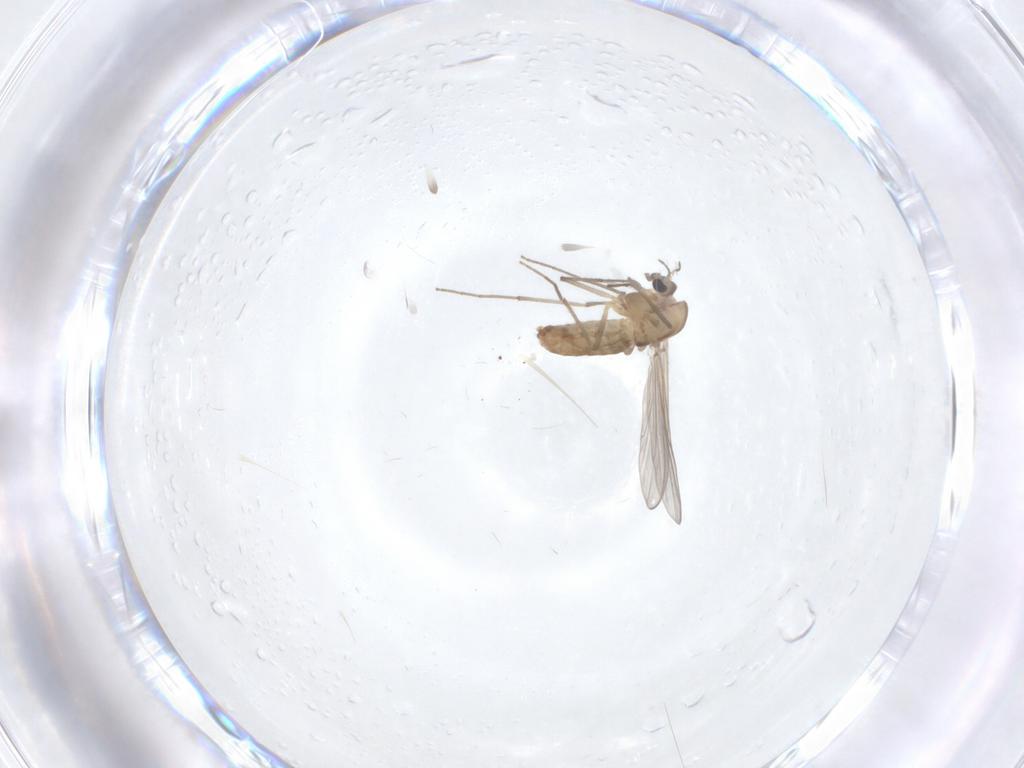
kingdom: Animalia
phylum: Arthropoda
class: Insecta
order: Diptera
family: Chironomidae
